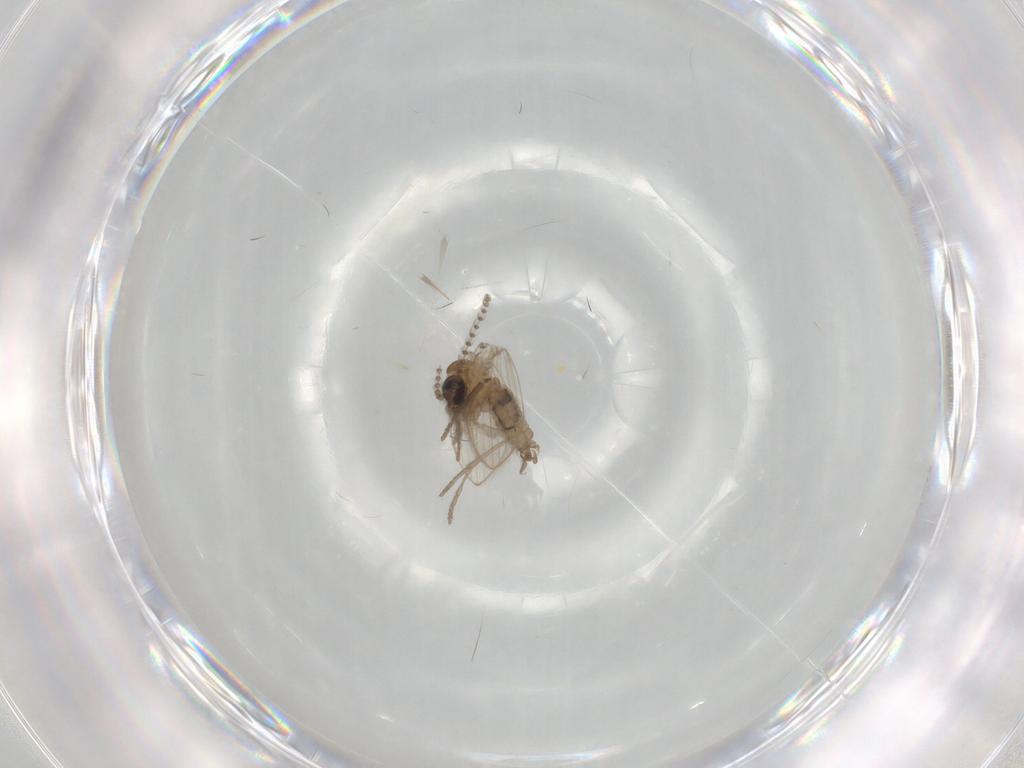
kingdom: Animalia
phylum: Arthropoda
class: Insecta
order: Diptera
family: Psychodidae
